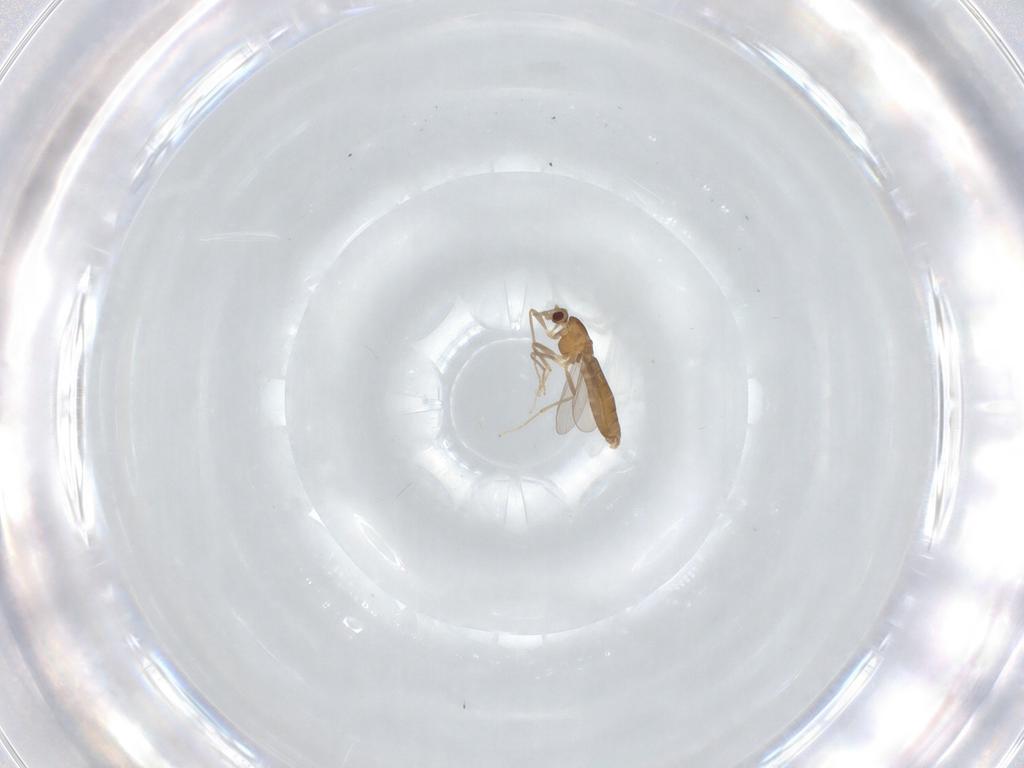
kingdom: Animalia
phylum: Arthropoda
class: Insecta
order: Diptera
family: Chironomidae
